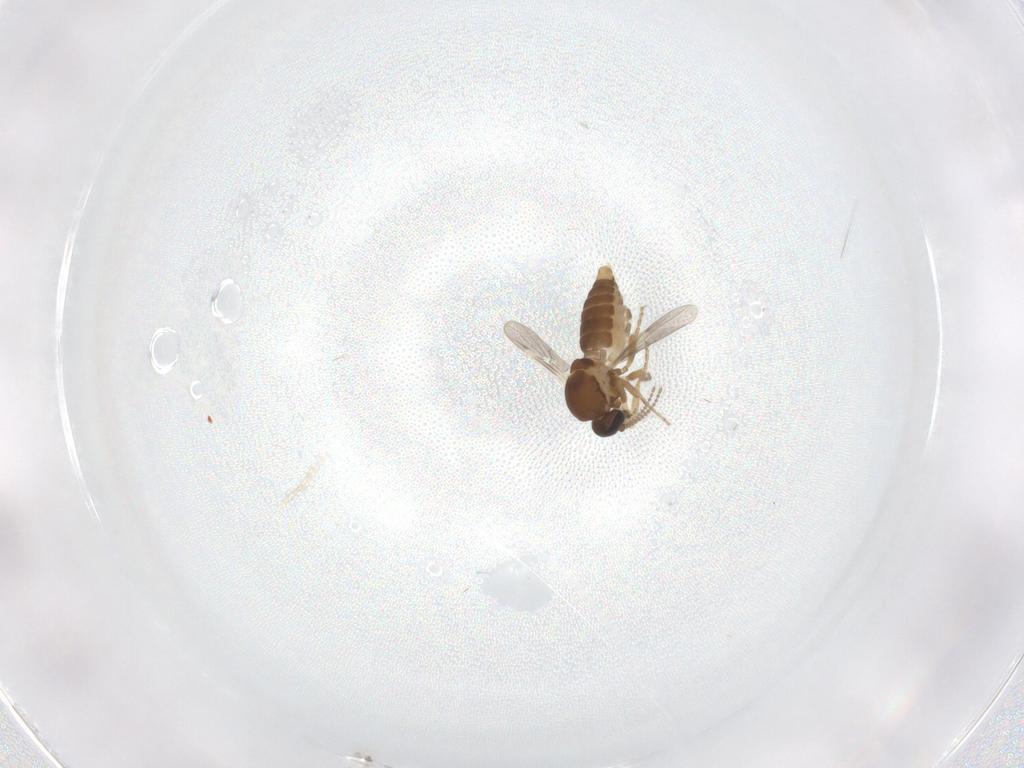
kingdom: Animalia
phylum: Arthropoda
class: Insecta
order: Diptera
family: Ceratopogonidae
